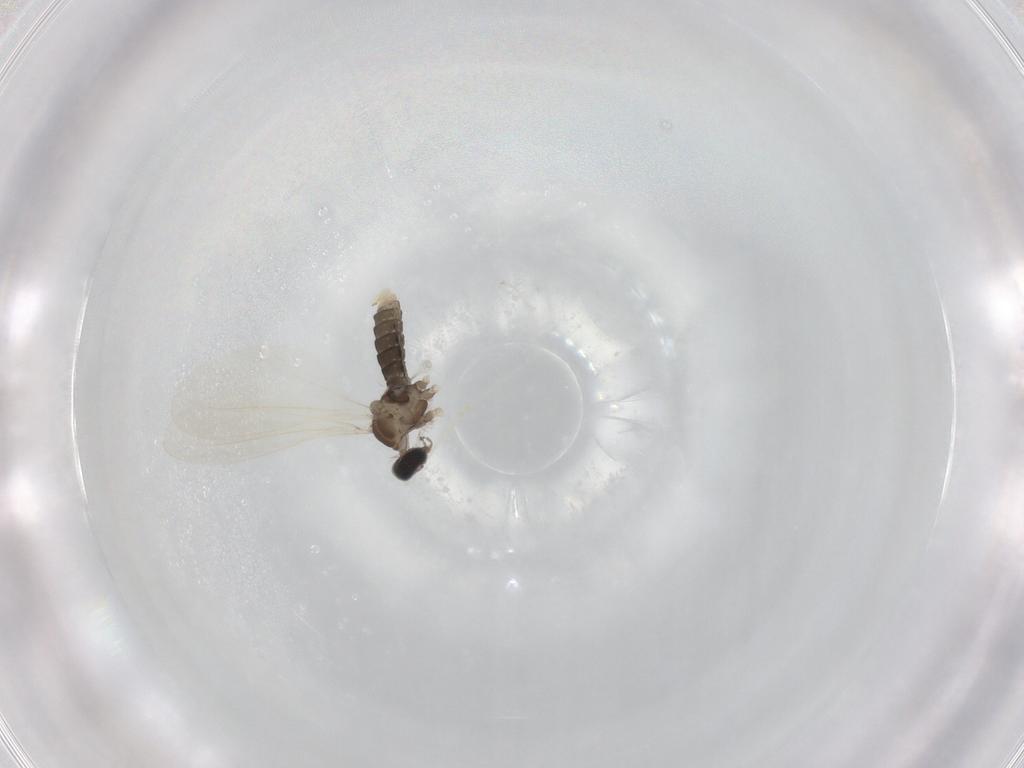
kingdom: Animalia
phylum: Arthropoda
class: Insecta
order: Diptera
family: Cecidomyiidae
